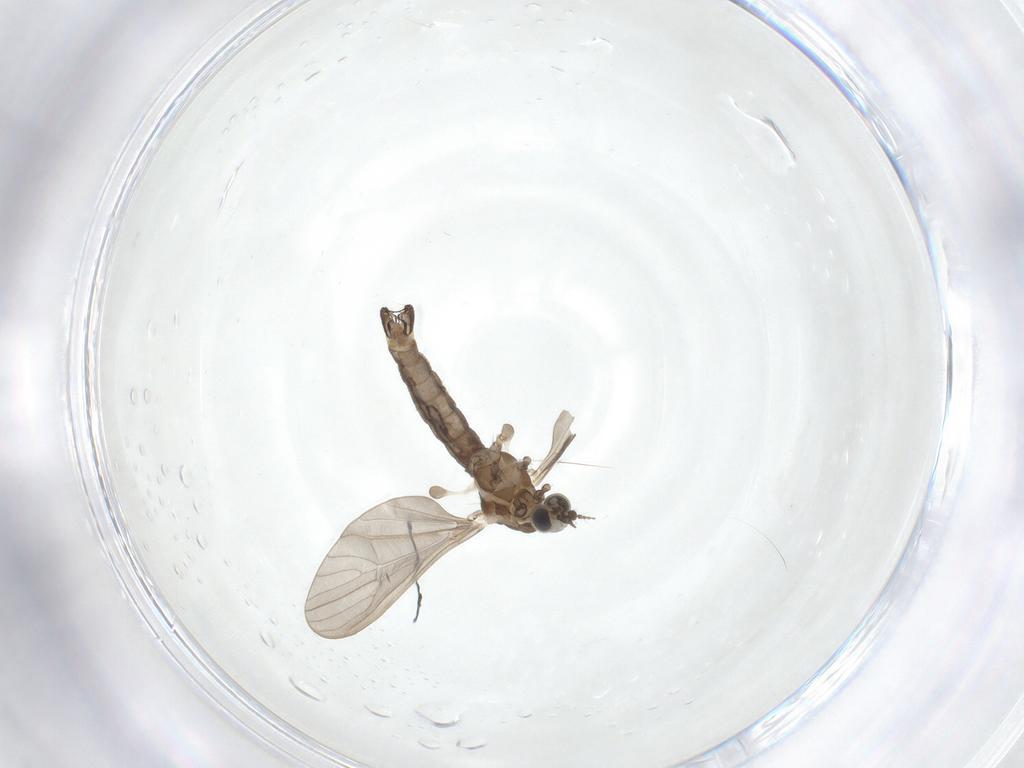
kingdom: Animalia
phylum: Arthropoda
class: Insecta
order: Diptera
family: Limoniidae
